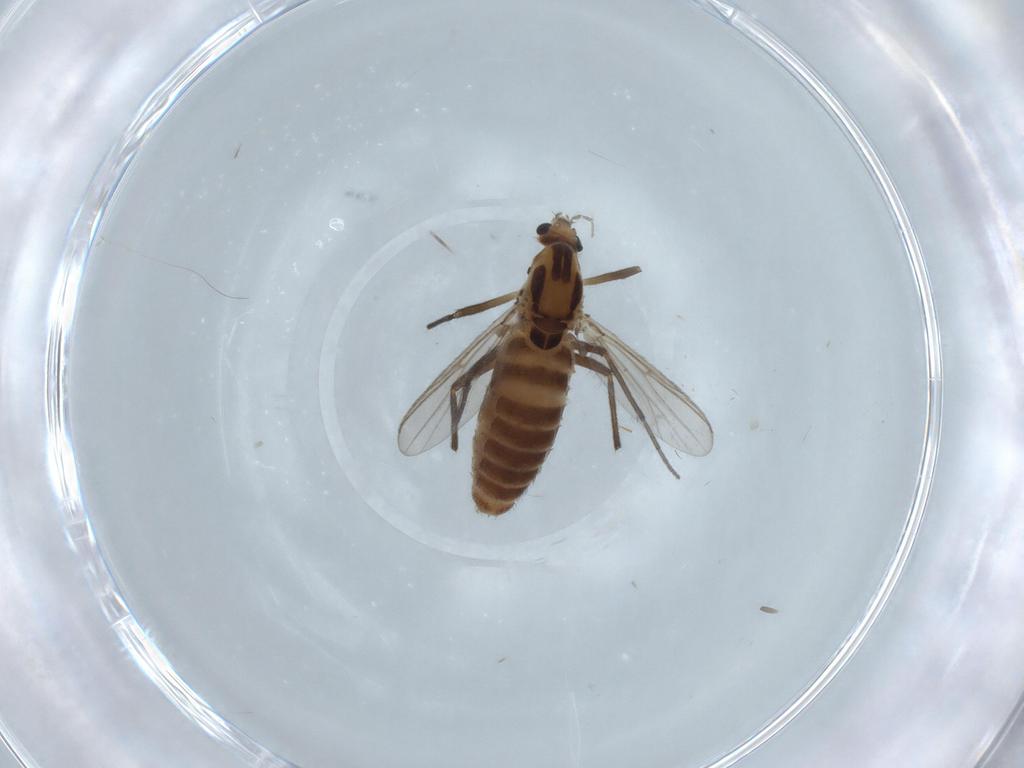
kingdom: Animalia
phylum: Arthropoda
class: Insecta
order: Diptera
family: Chironomidae
